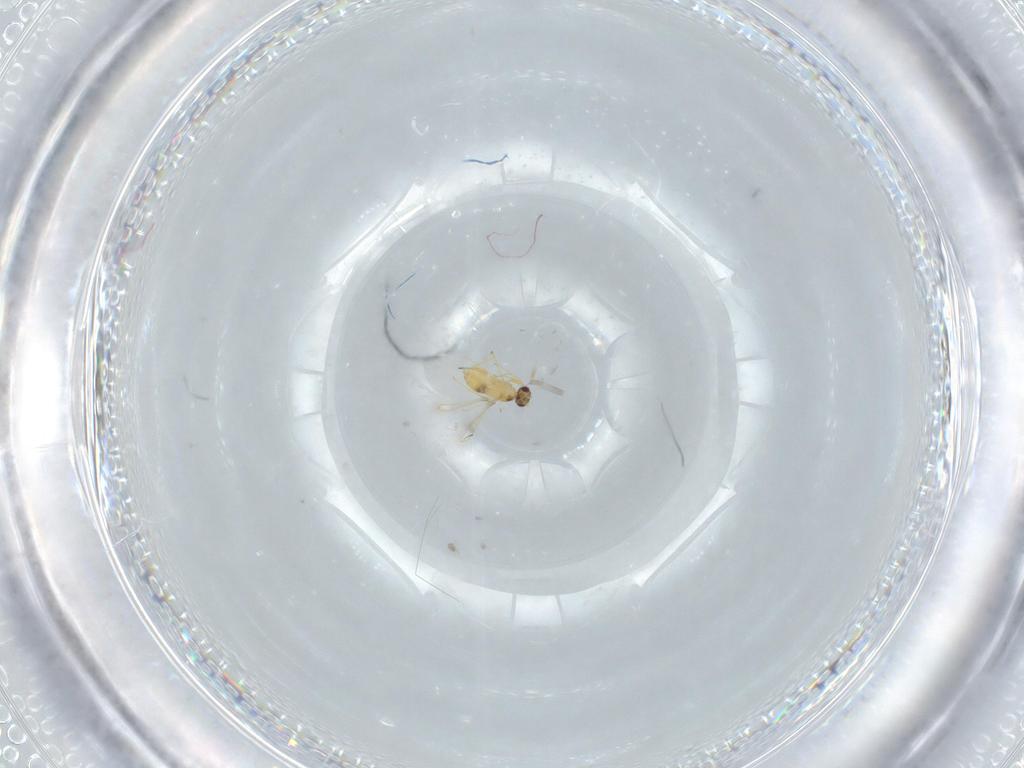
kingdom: Animalia
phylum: Arthropoda
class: Insecta
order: Hymenoptera
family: Mymaridae
